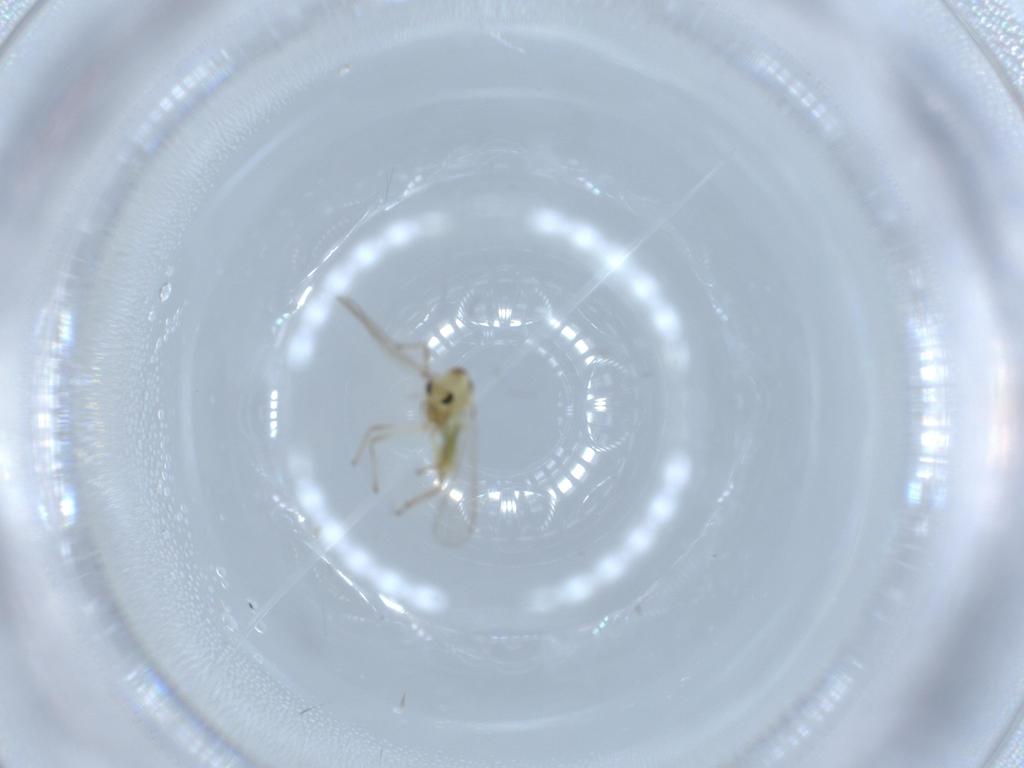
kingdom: Animalia
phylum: Arthropoda
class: Insecta
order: Diptera
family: Chironomidae
